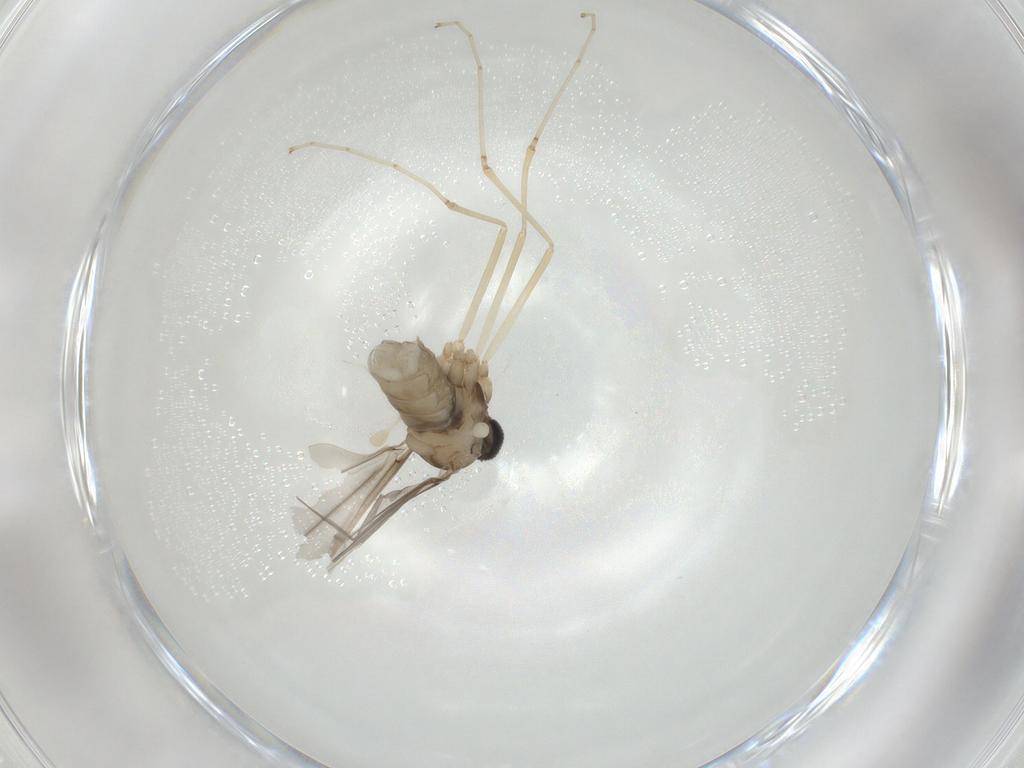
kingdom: Animalia
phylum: Arthropoda
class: Insecta
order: Diptera
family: Cecidomyiidae
